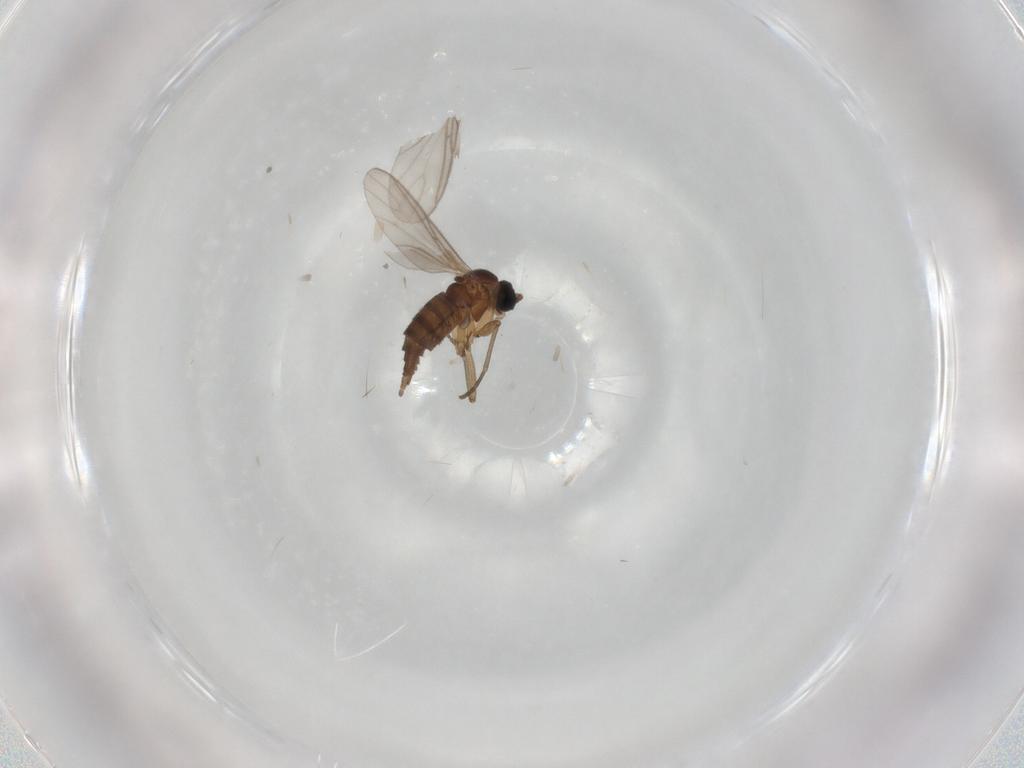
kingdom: Animalia
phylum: Arthropoda
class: Insecta
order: Diptera
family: Sciaridae
